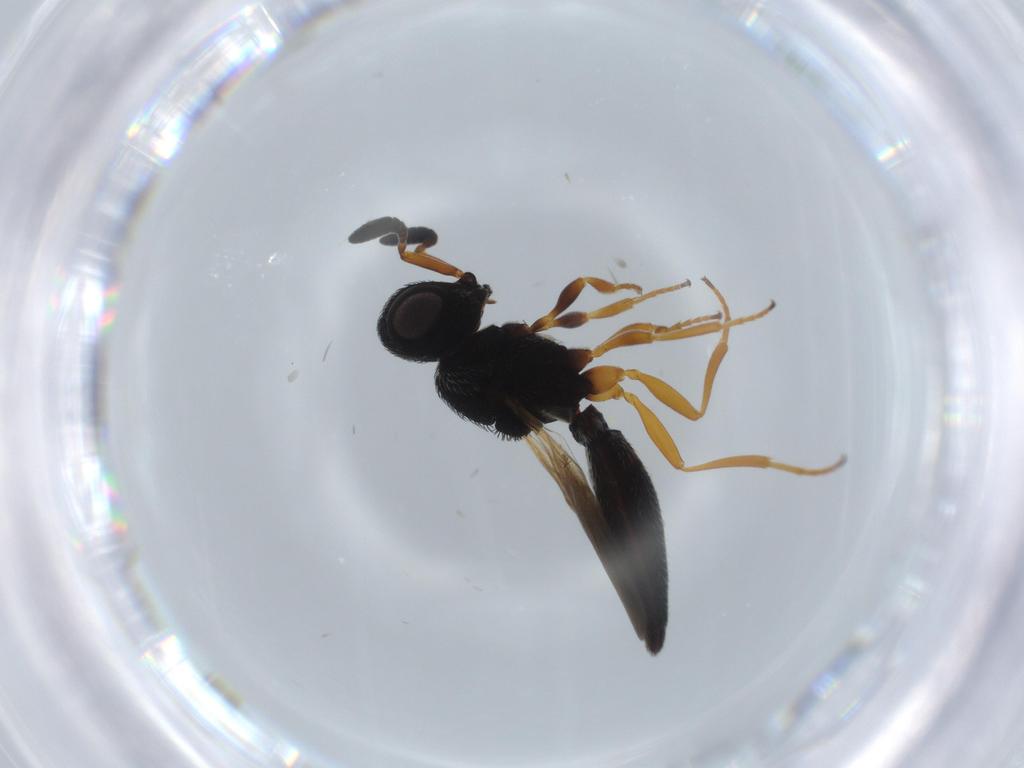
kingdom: Animalia
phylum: Arthropoda
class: Insecta
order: Hymenoptera
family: Scelionidae
